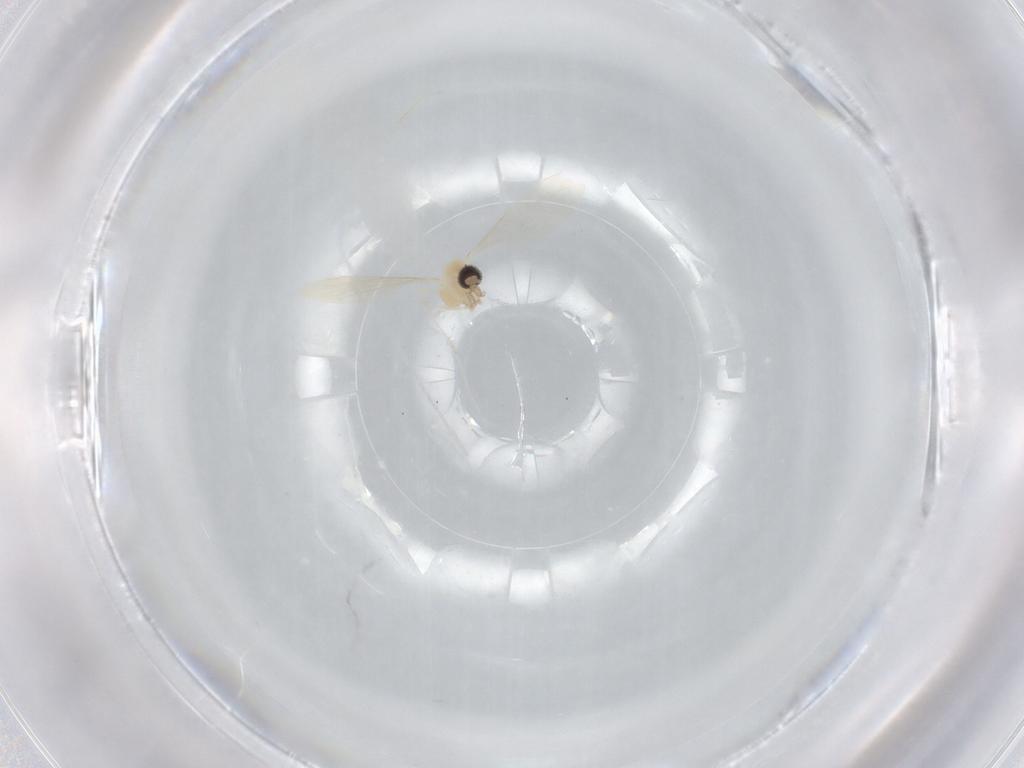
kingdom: Animalia
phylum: Arthropoda
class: Insecta
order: Diptera
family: Cecidomyiidae
